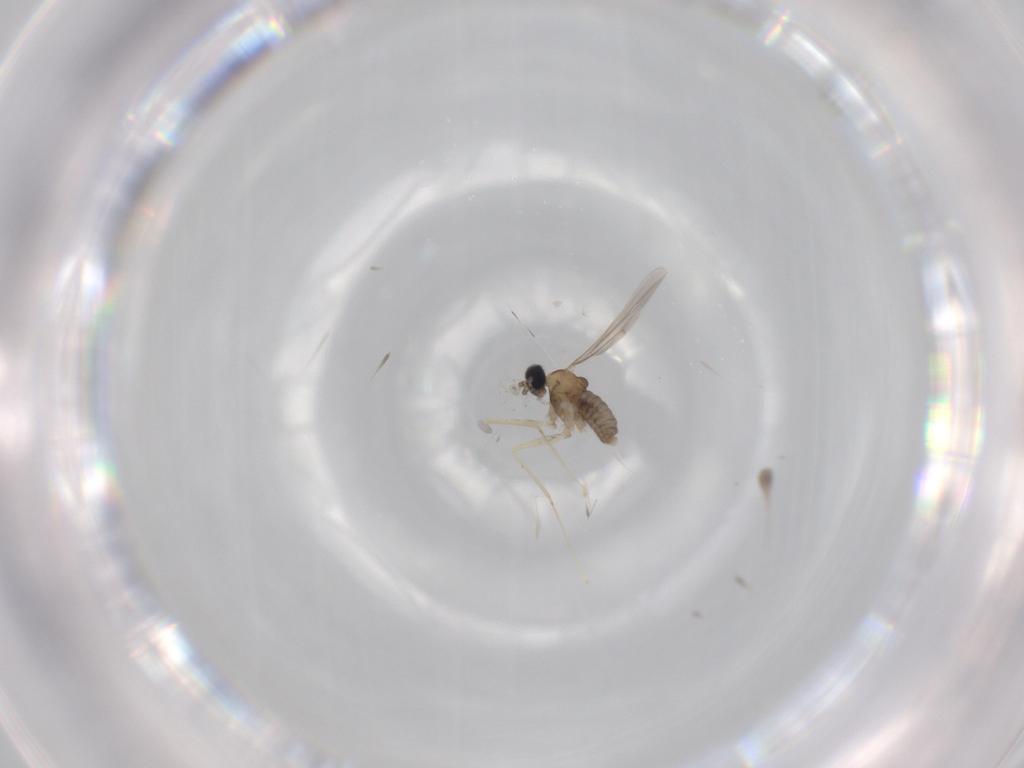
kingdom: Animalia
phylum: Arthropoda
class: Insecta
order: Diptera
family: Cecidomyiidae
